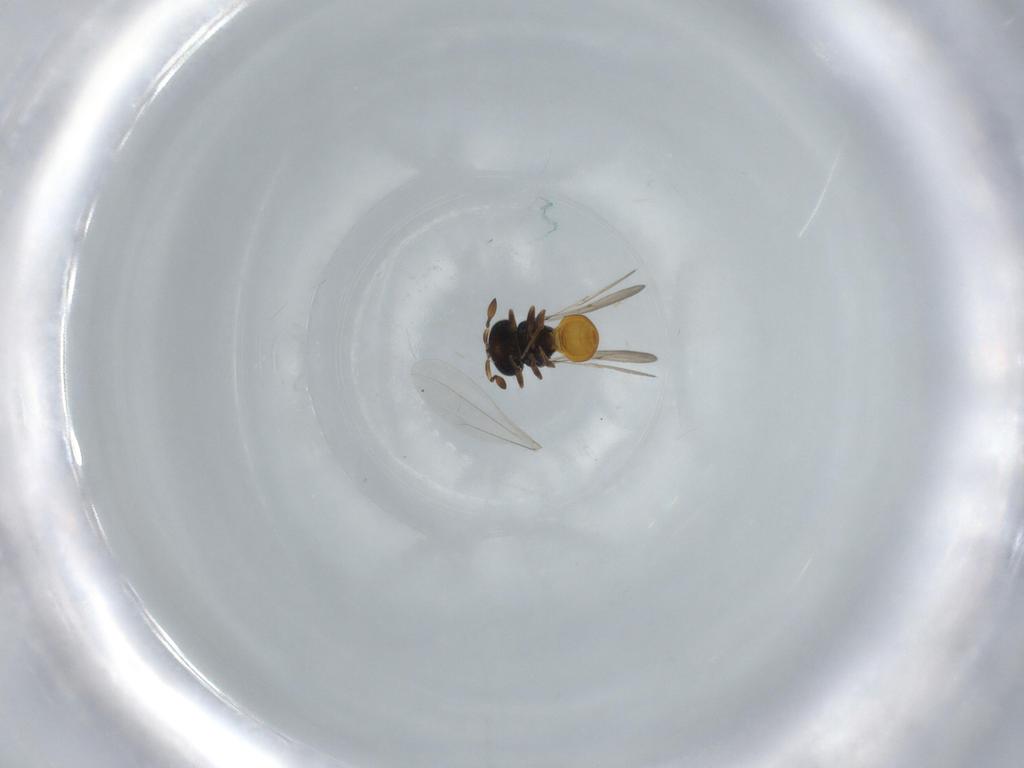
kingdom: Animalia
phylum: Arthropoda
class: Insecta
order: Hymenoptera
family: Scelionidae
